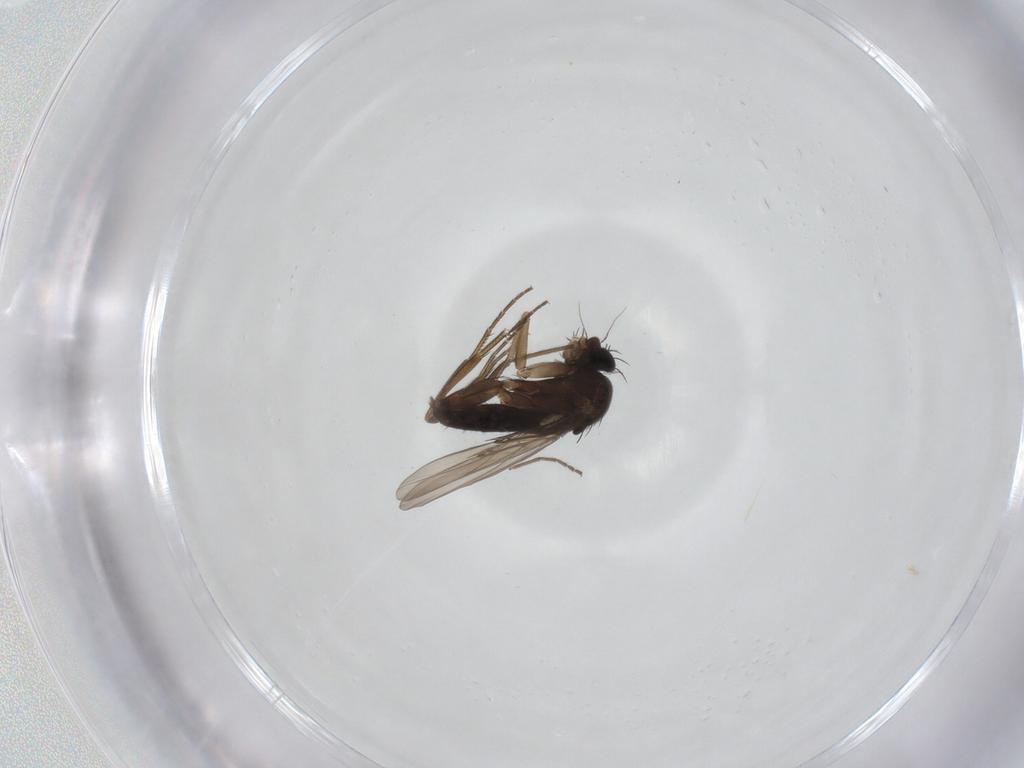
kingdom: Animalia
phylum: Arthropoda
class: Insecta
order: Diptera
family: Phoridae
